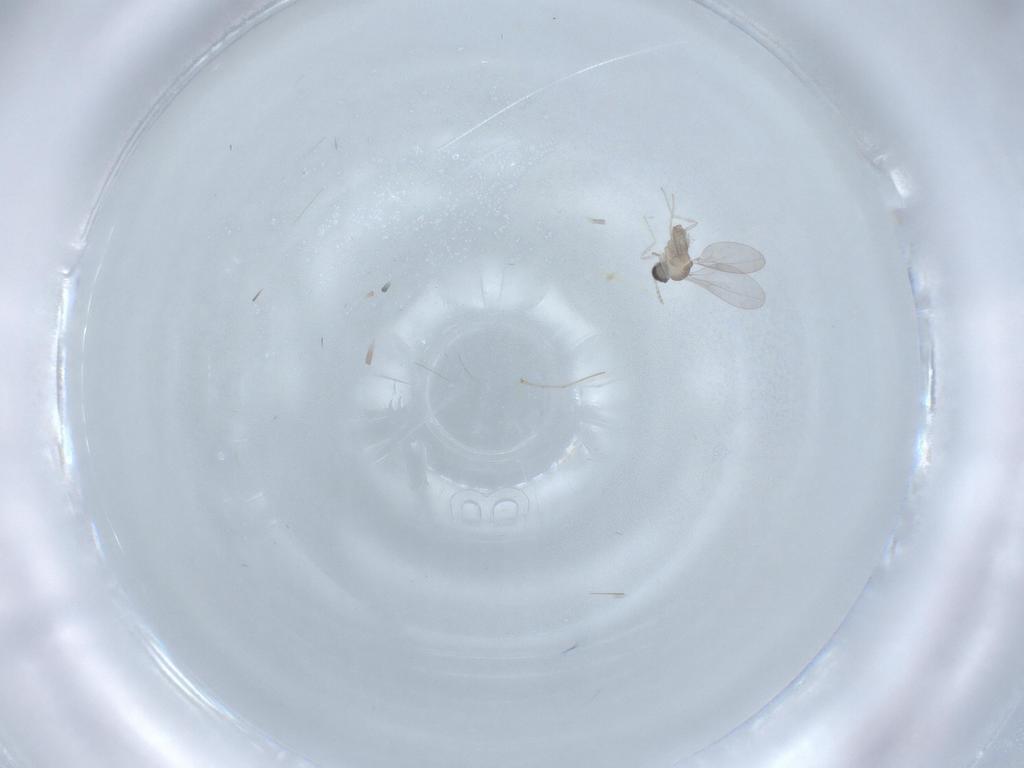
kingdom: Animalia
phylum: Arthropoda
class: Insecta
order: Diptera
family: Cecidomyiidae
